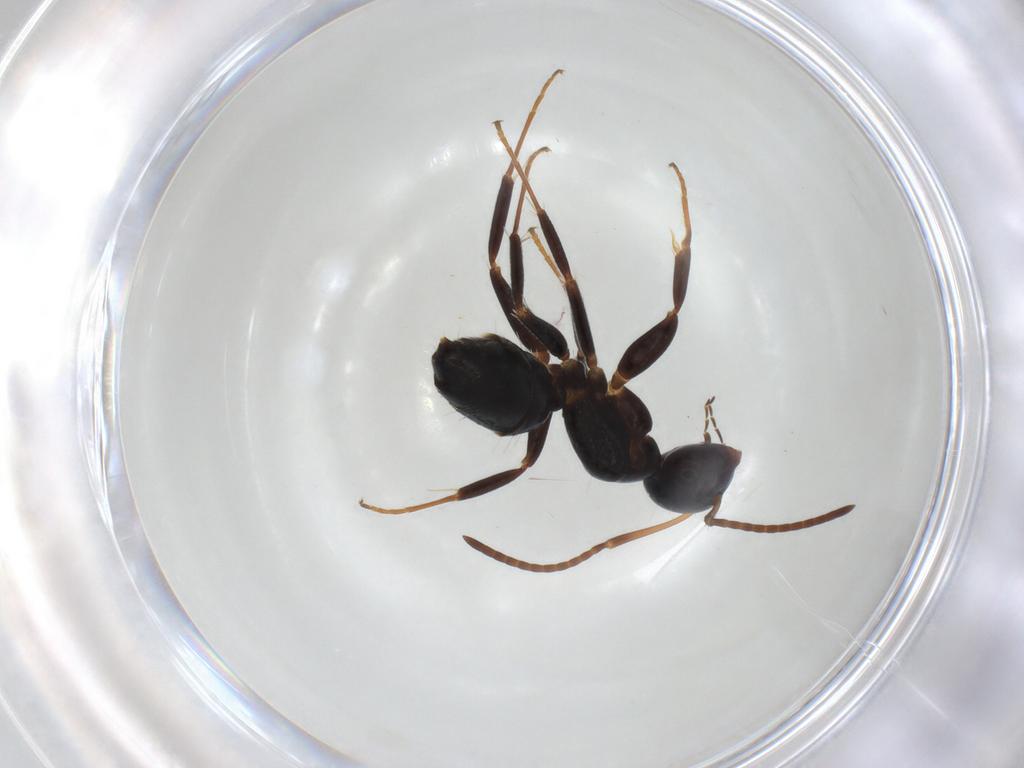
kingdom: Animalia
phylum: Arthropoda
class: Insecta
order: Hymenoptera
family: Formicidae
